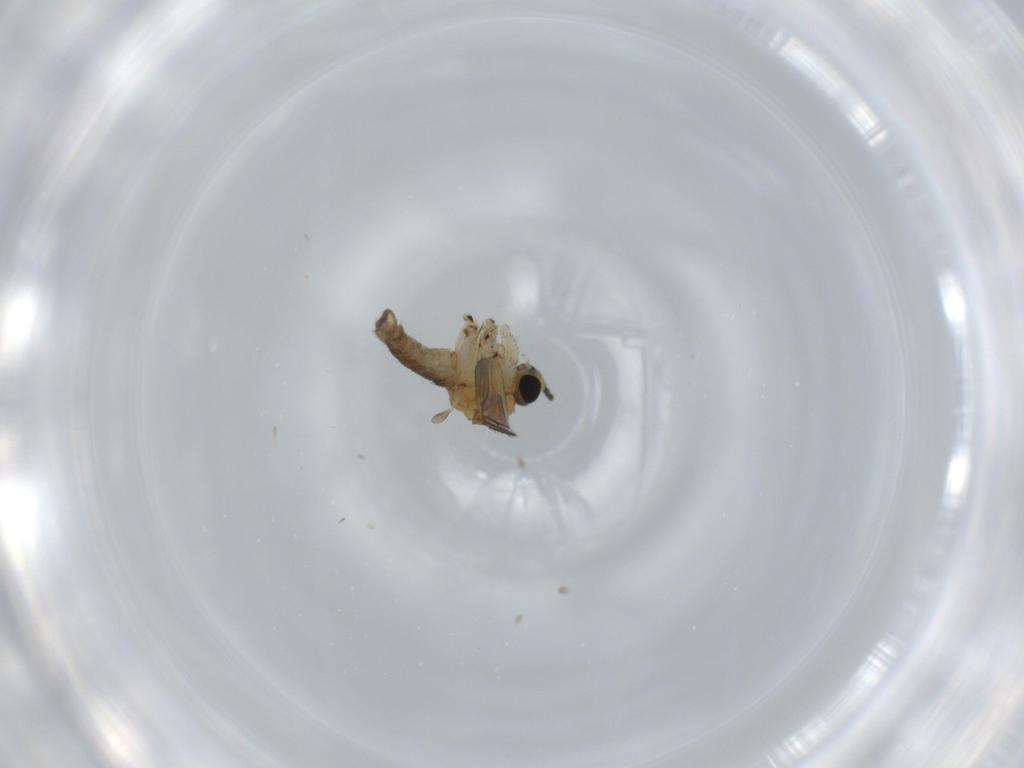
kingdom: Animalia
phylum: Arthropoda
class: Insecta
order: Diptera
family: Sciaridae
